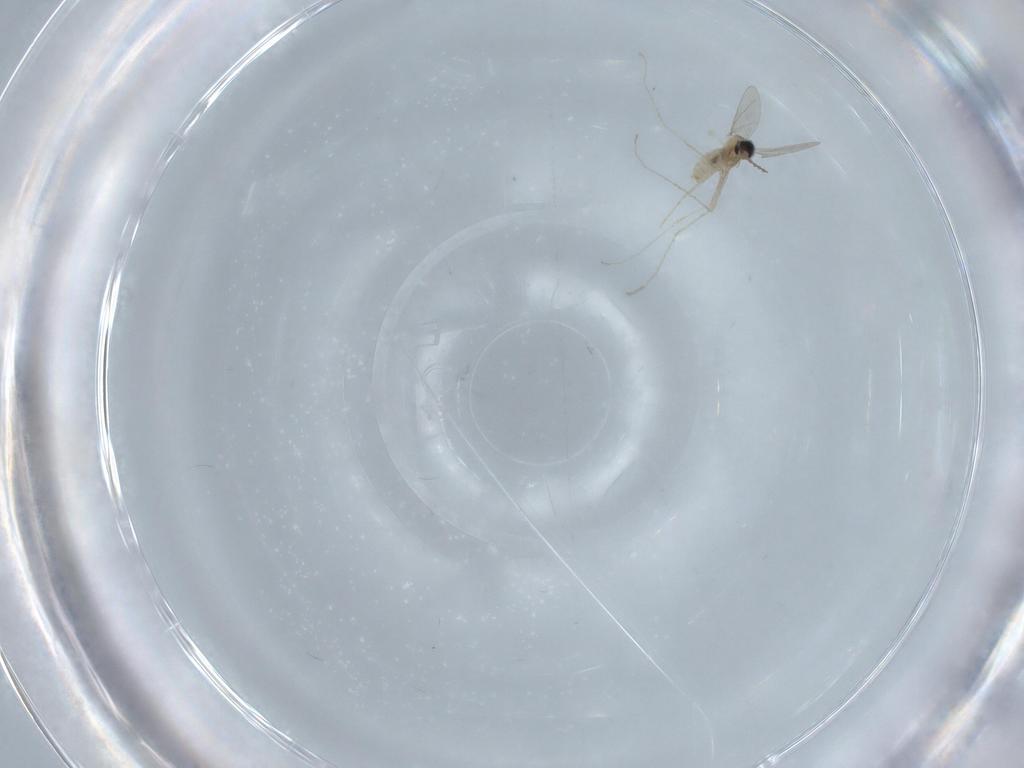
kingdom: Animalia
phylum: Arthropoda
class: Insecta
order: Diptera
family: Cecidomyiidae
